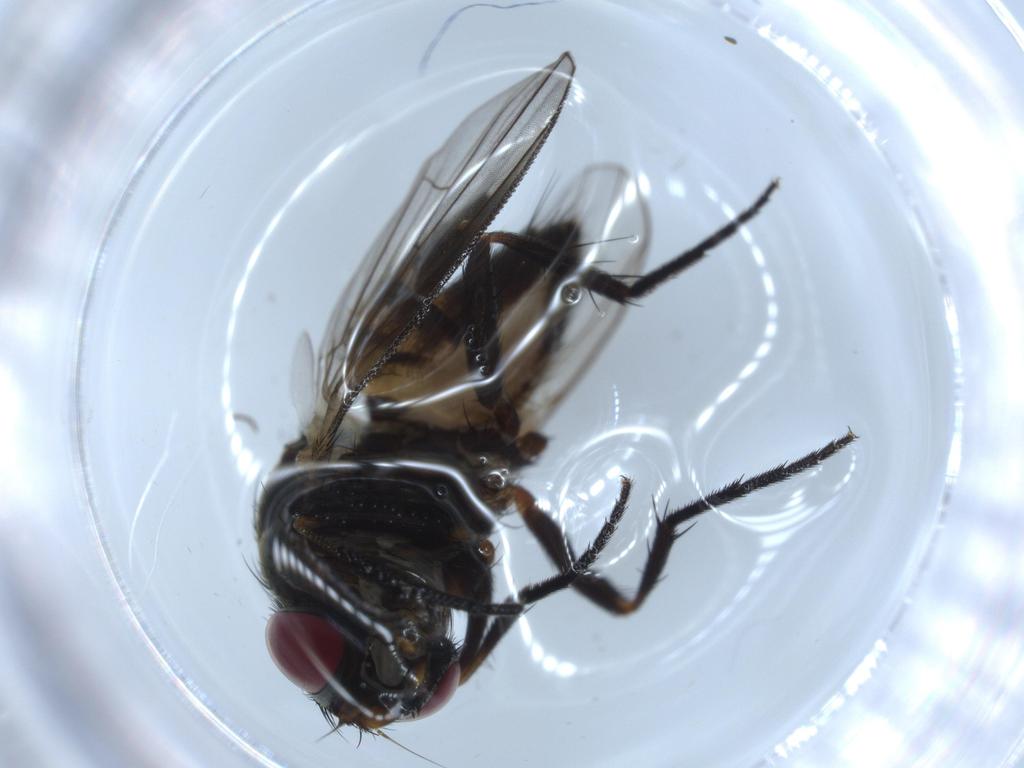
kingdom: Animalia
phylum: Arthropoda
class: Insecta
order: Diptera
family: Fannia
